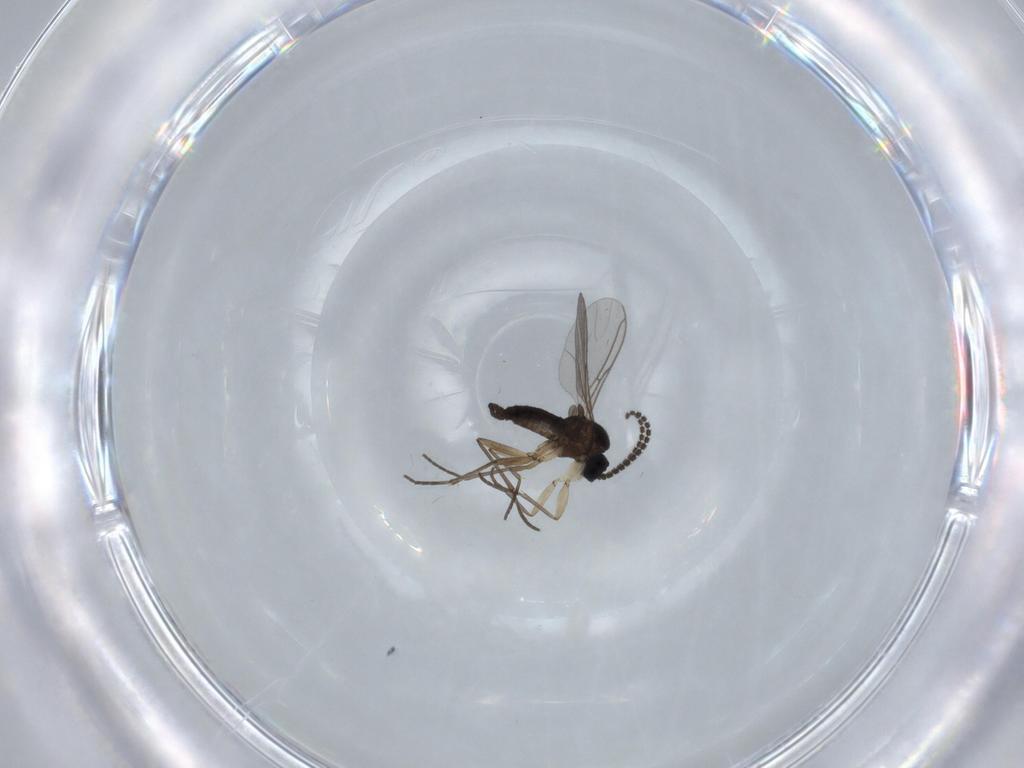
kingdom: Animalia
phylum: Arthropoda
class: Insecta
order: Diptera
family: Sciaridae
